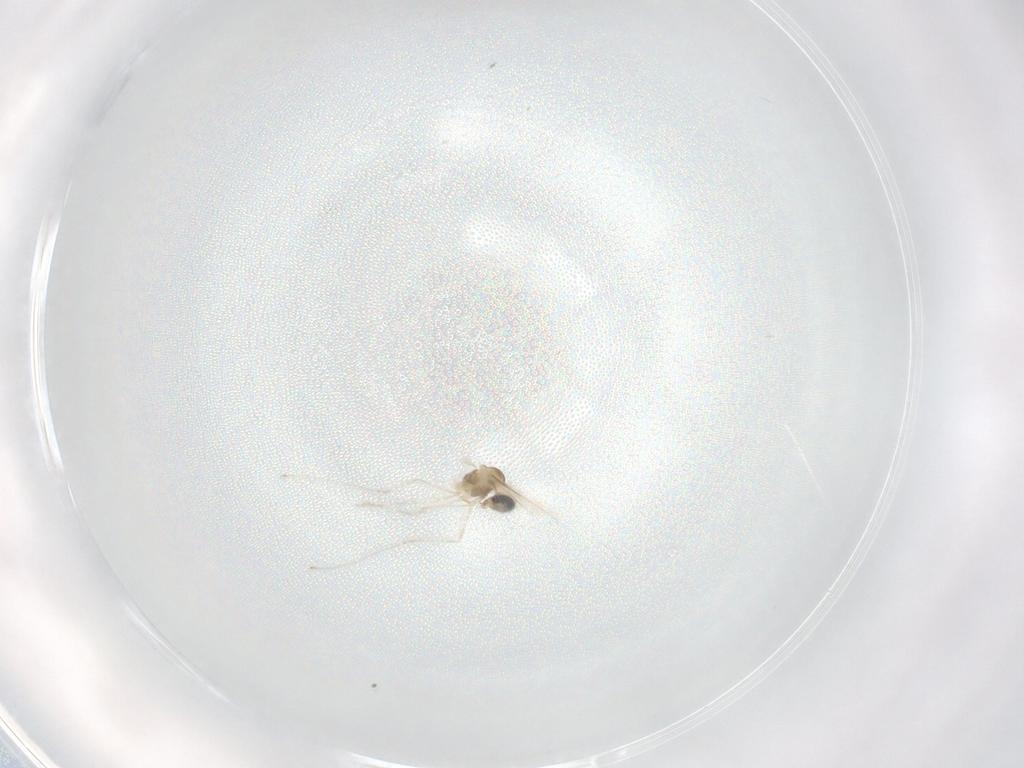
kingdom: Animalia
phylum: Arthropoda
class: Insecta
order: Diptera
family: Cecidomyiidae
